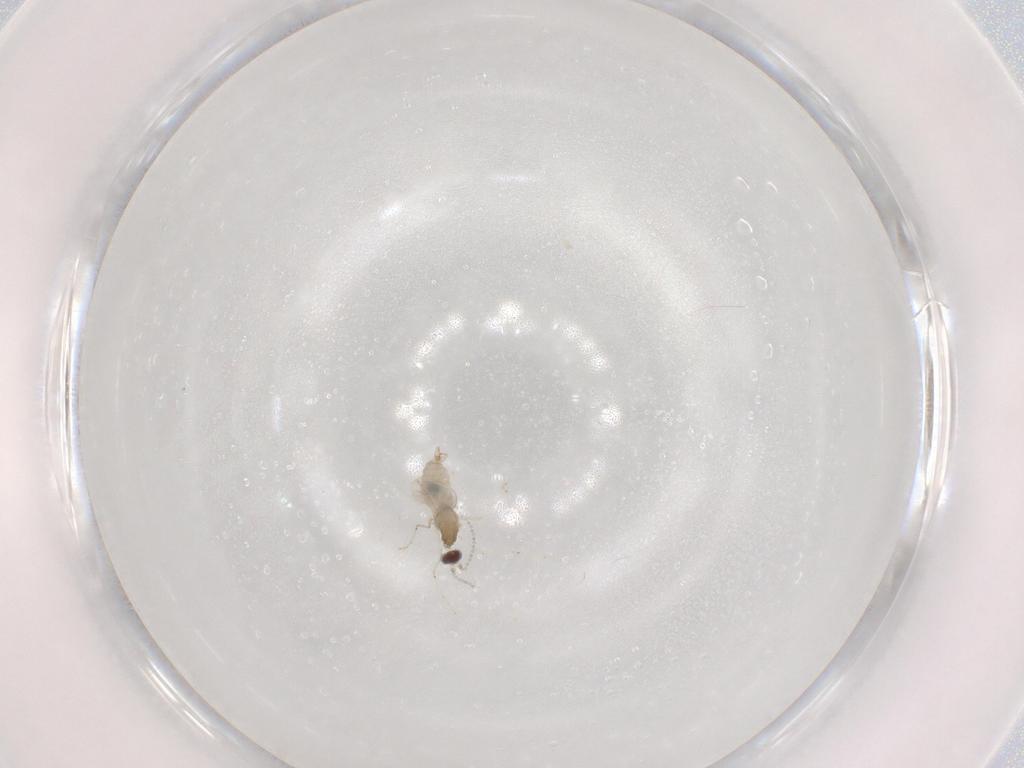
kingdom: Animalia
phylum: Arthropoda
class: Insecta
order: Diptera
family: Cecidomyiidae
